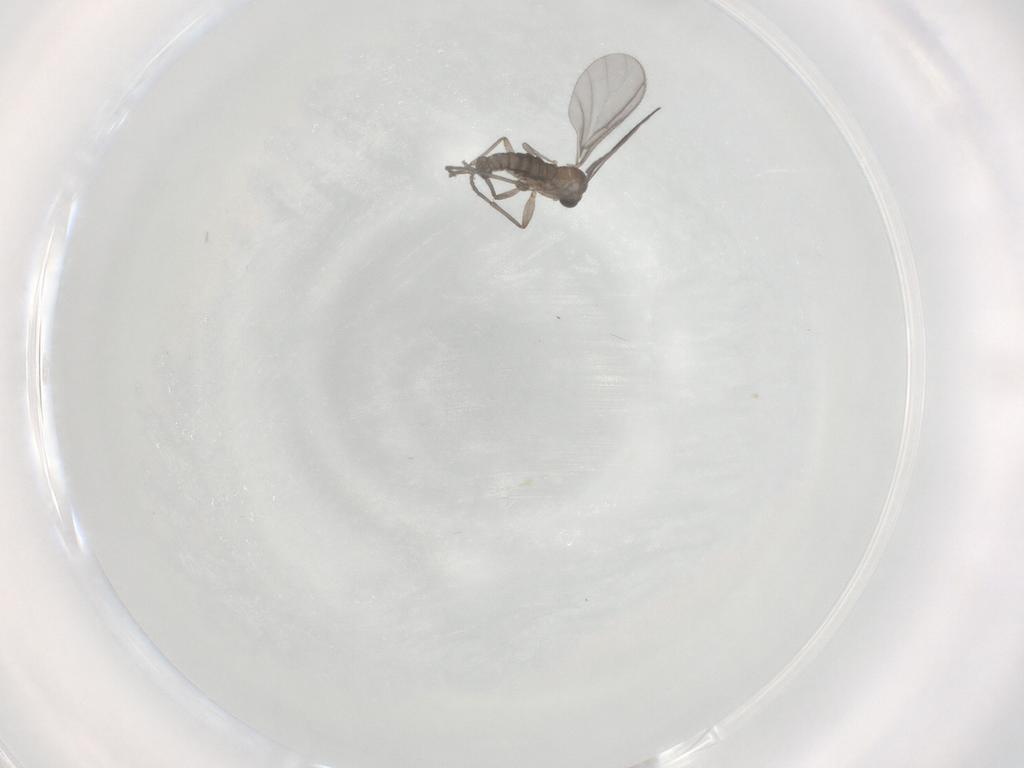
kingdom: Animalia
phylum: Arthropoda
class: Insecta
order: Diptera
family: Sciaridae
